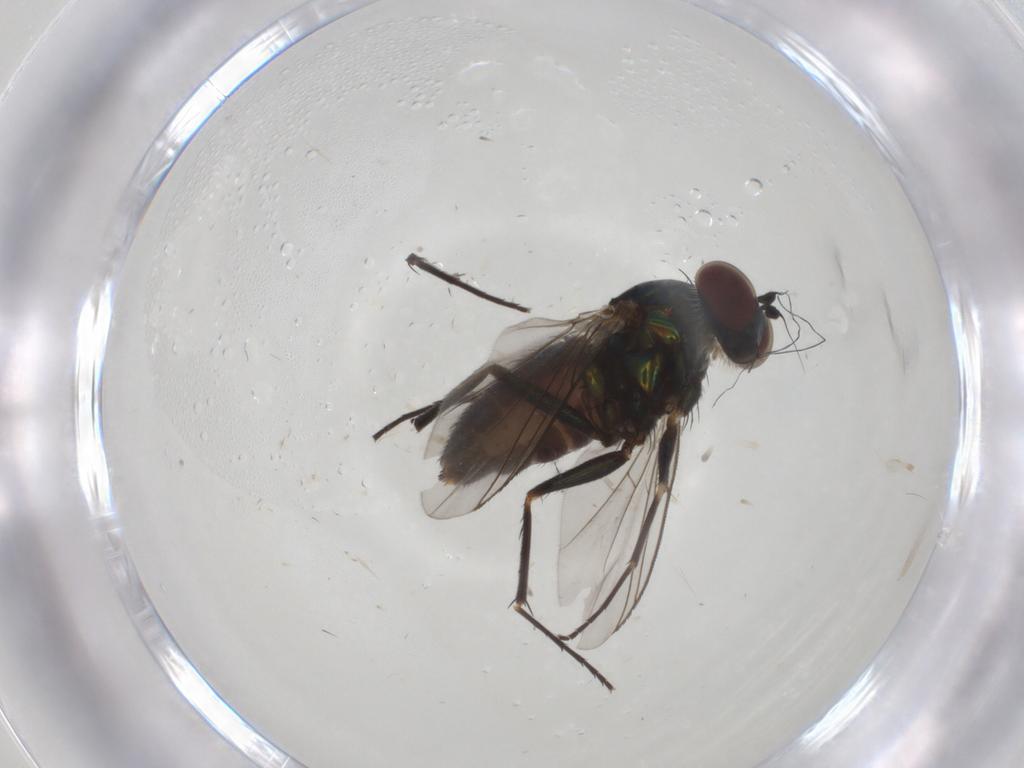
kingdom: Animalia
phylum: Arthropoda
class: Insecta
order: Diptera
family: Dolichopodidae
